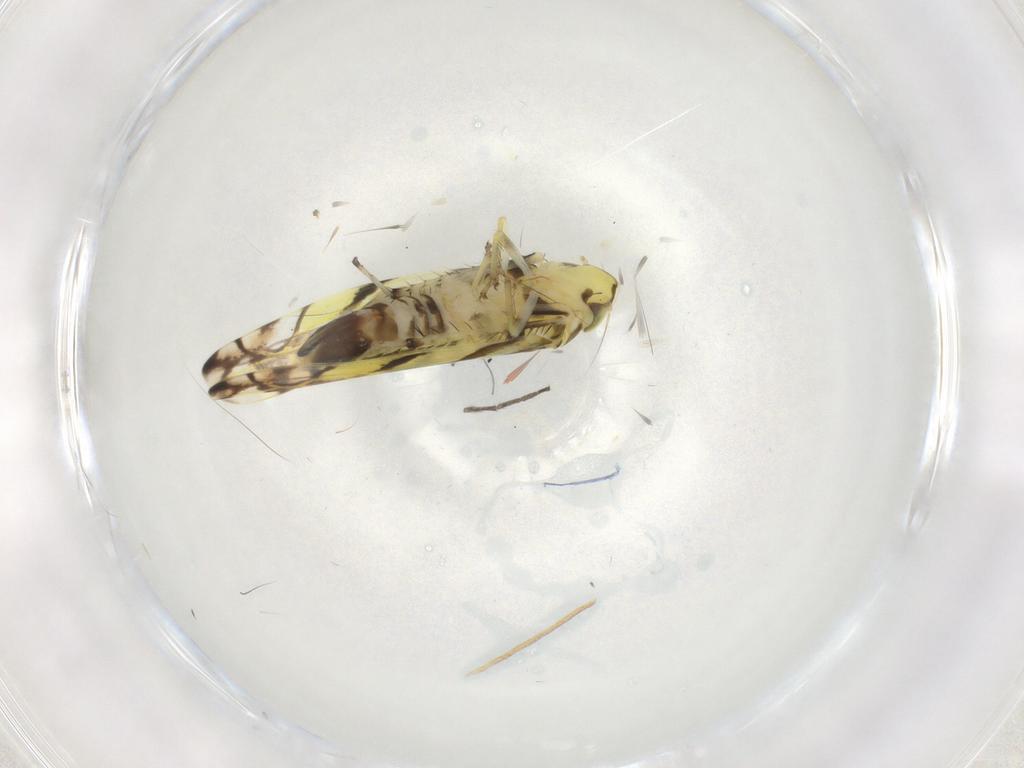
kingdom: Animalia
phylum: Arthropoda
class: Insecta
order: Hemiptera
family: Cicadellidae
